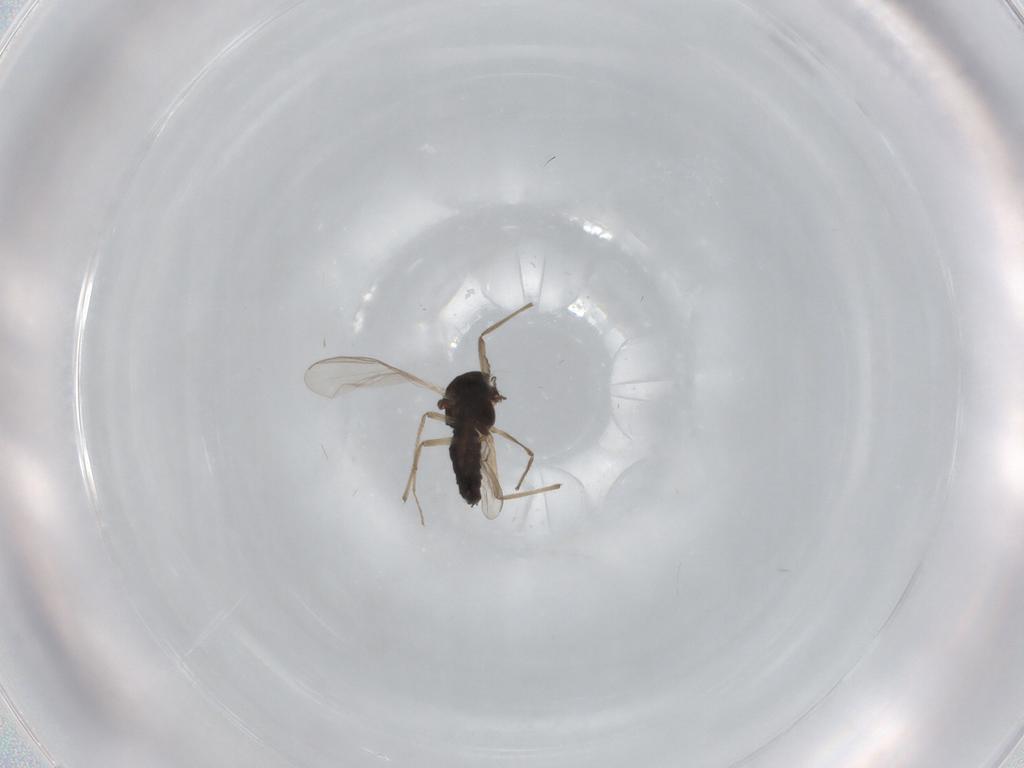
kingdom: Animalia
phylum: Arthropoda
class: Insecta
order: Diptera
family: Chironomidae
